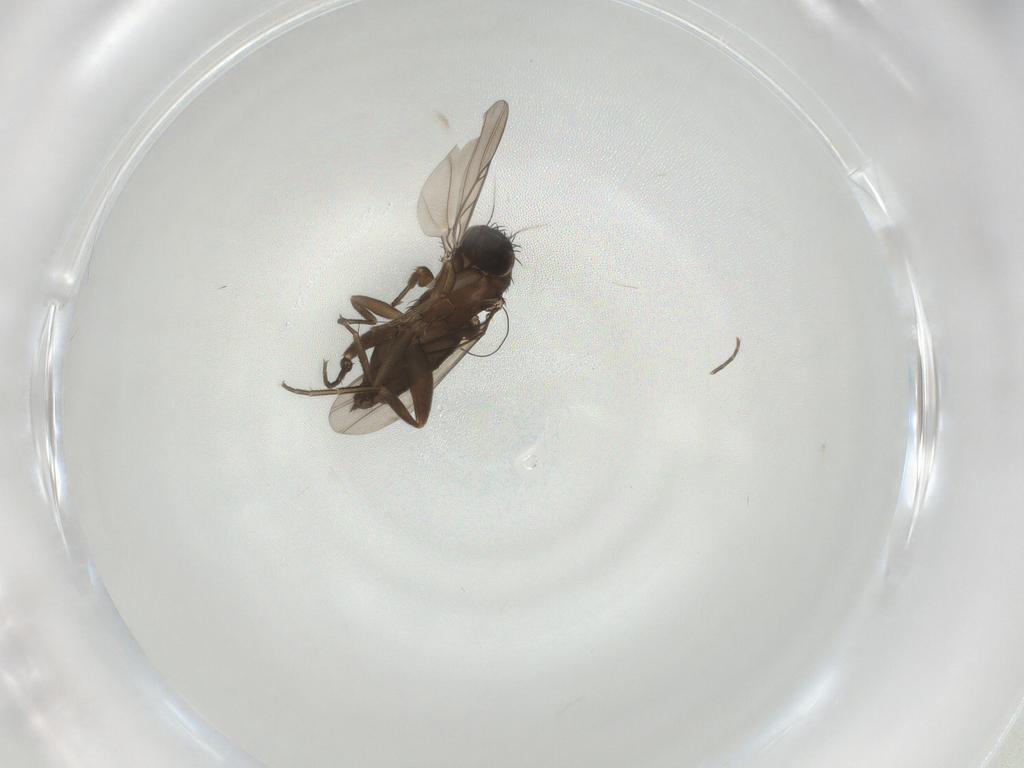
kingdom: Animalia
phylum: Arthropoda
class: Insecta
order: Diptera
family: Phoridae
